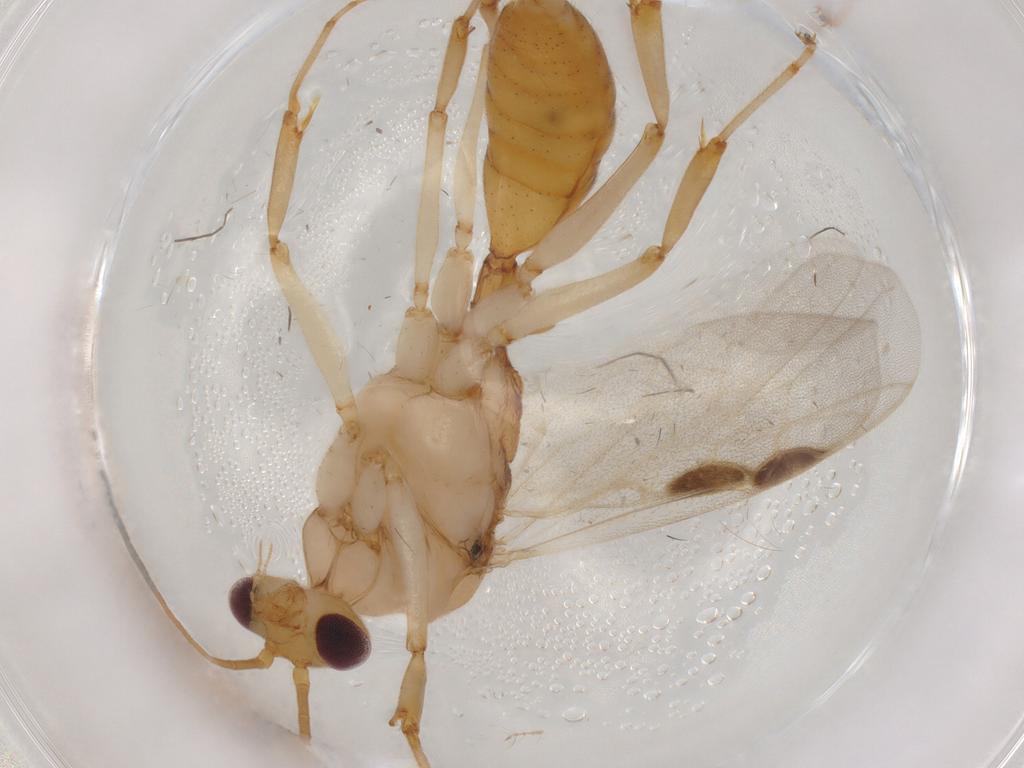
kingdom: Animalia
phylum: Arthropoda
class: Insecta
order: Hymenoptera
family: Formicidae
